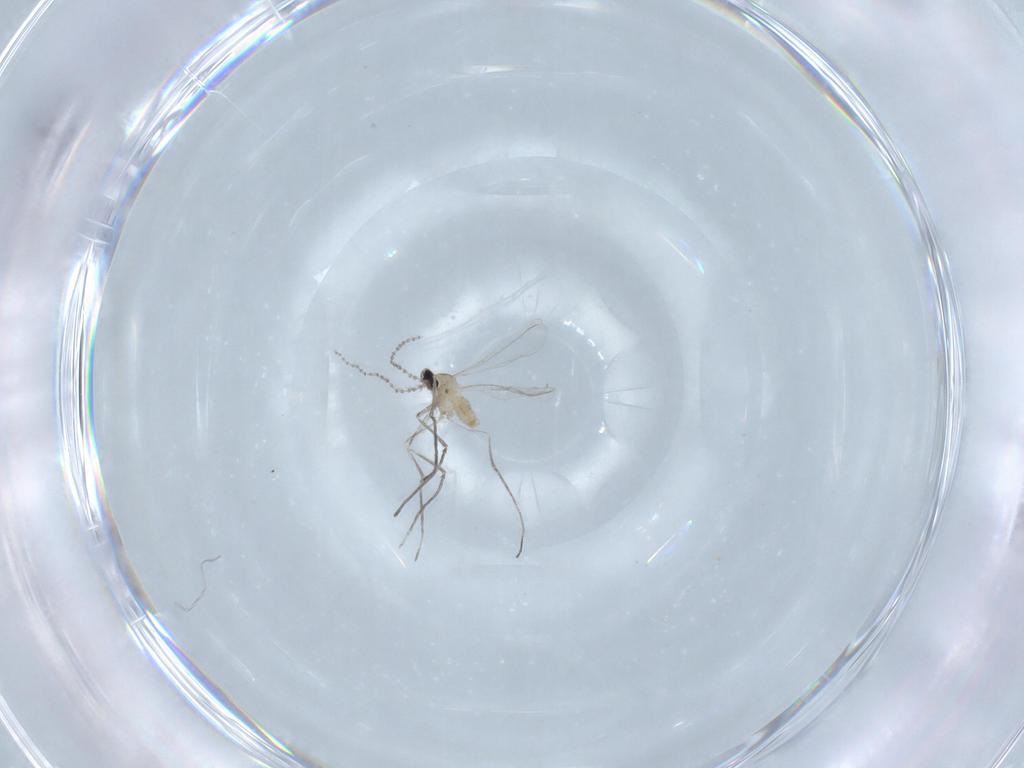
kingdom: Animalia
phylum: Arthropoda
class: Insecta
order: Diptera
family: Cecidomyiidae
